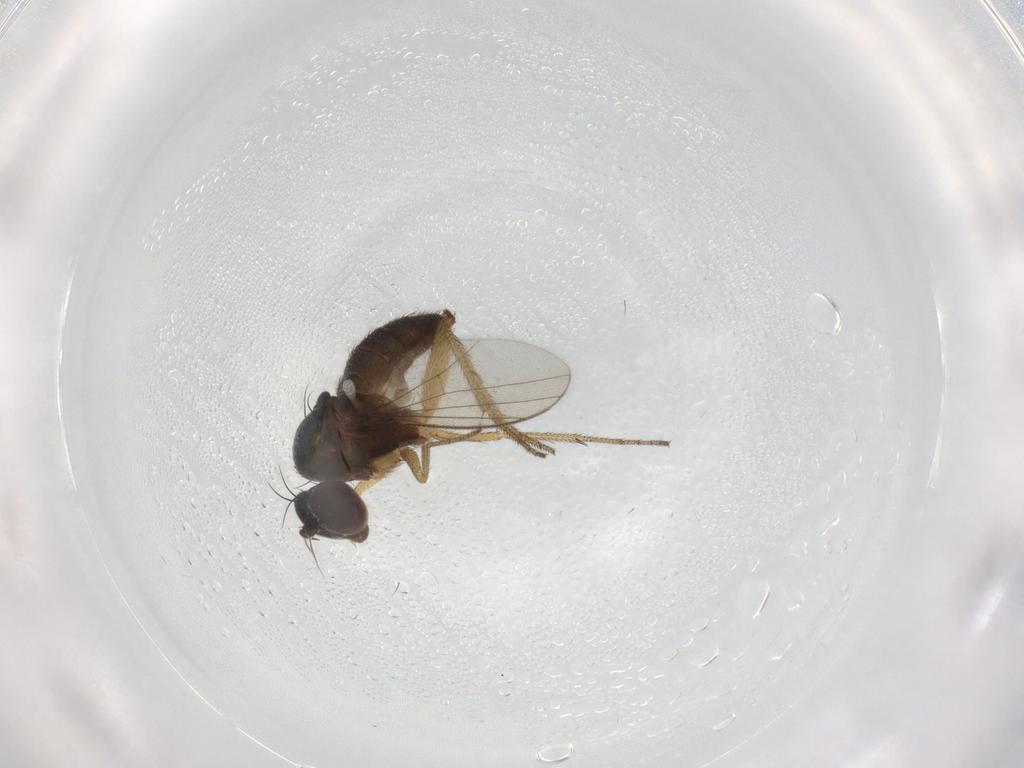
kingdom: Animalia
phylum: Arthropoda
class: Insecta
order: Diptera
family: Dolichopodidae
